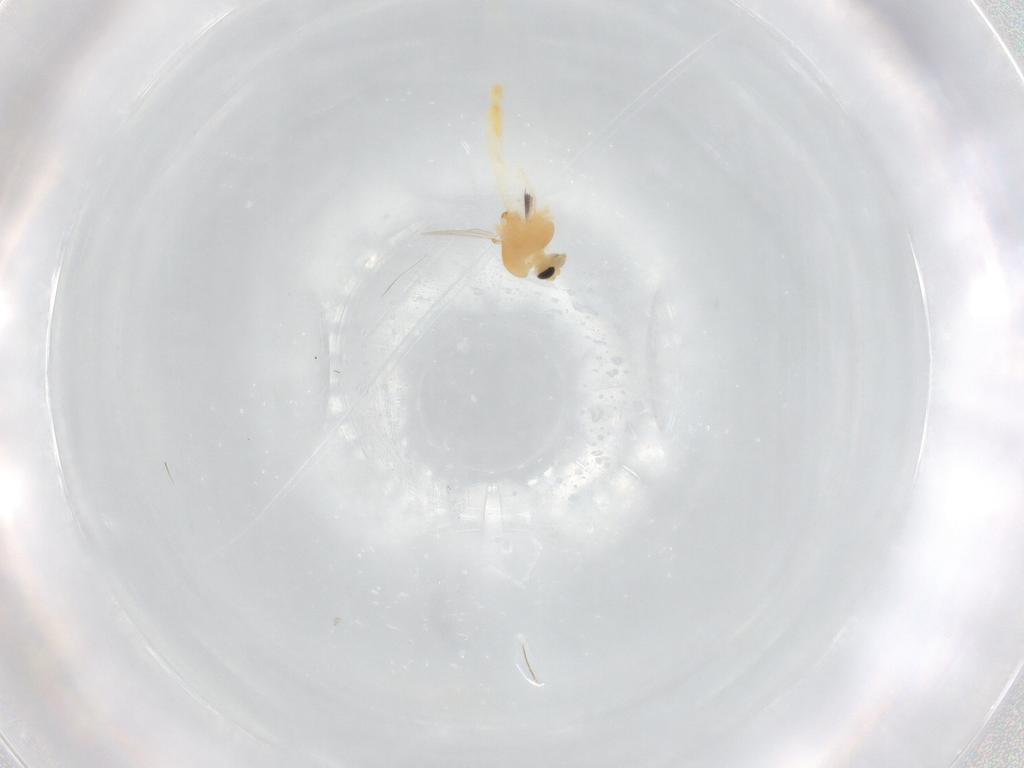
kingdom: Animalia
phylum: Arthropoda
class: Insecta
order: Diptera
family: Chironomidae
